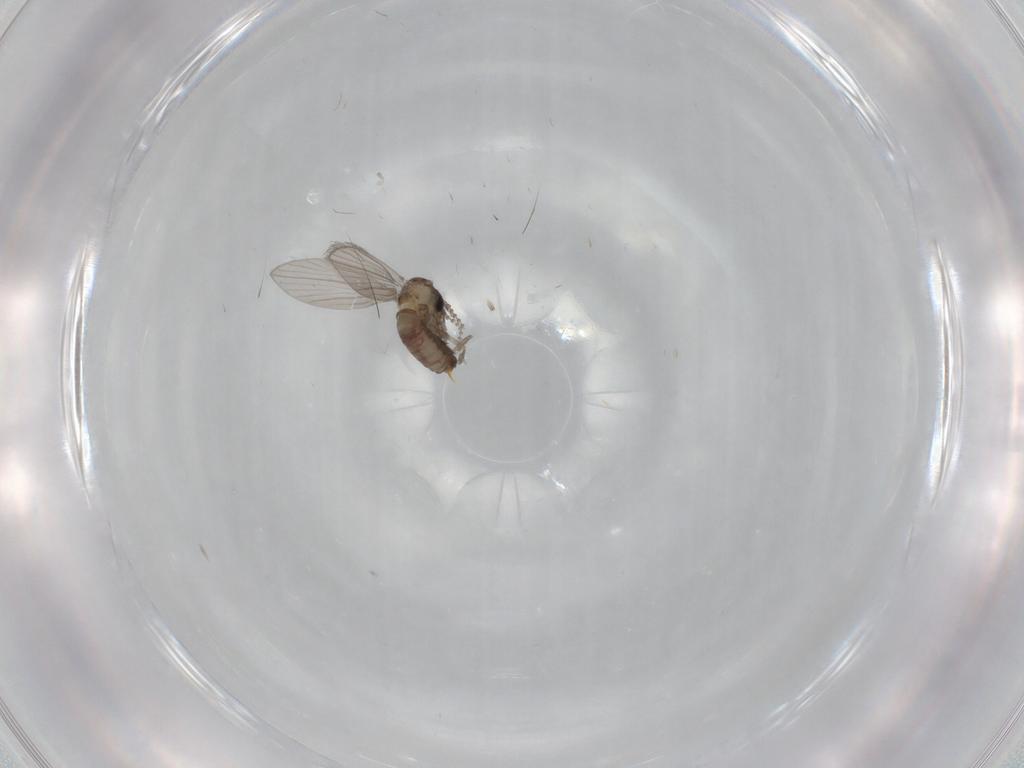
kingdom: Animalia
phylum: Arthropoda
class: Insecta
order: Diptera
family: Psychodidae
